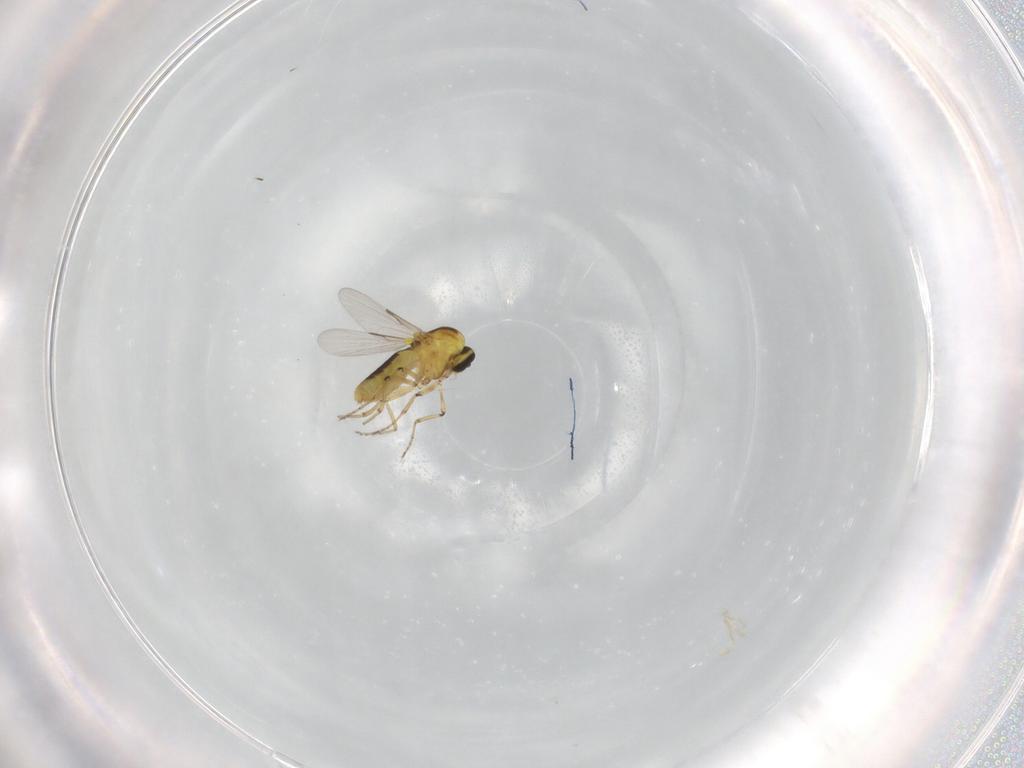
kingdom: Animalia
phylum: Arthropoda
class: Insecta
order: Diptera
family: Ceratopogonidae
